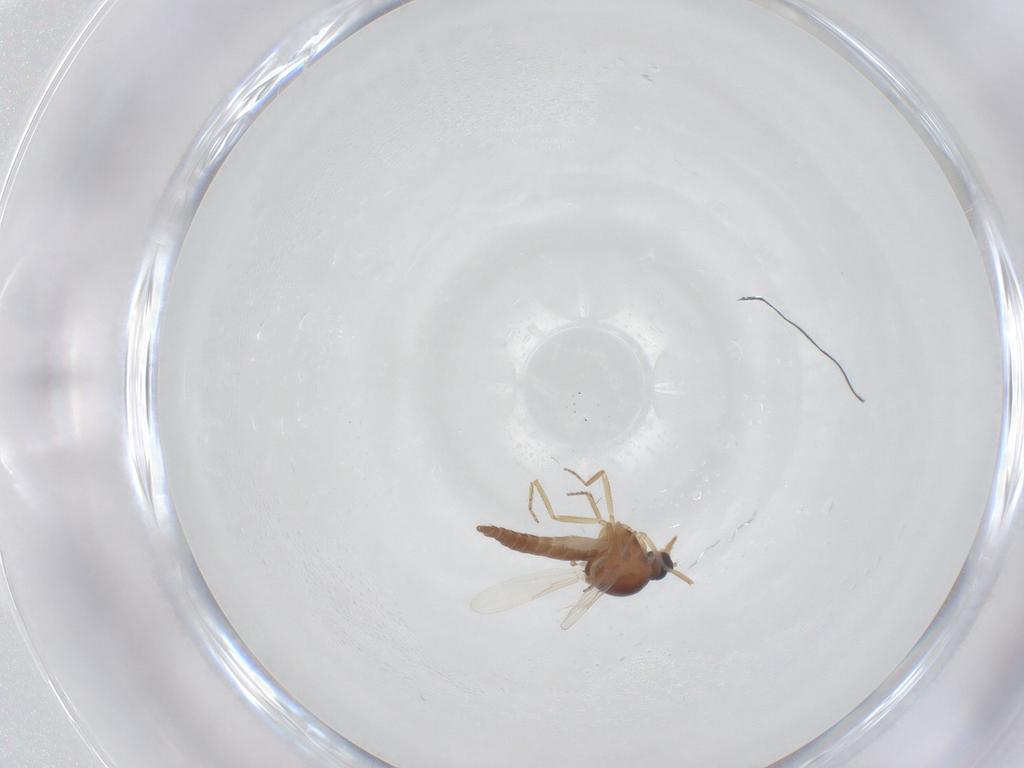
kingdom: Animalia
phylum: Arthropoda
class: Insecta
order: Diptera
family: Ceratopogonidae
